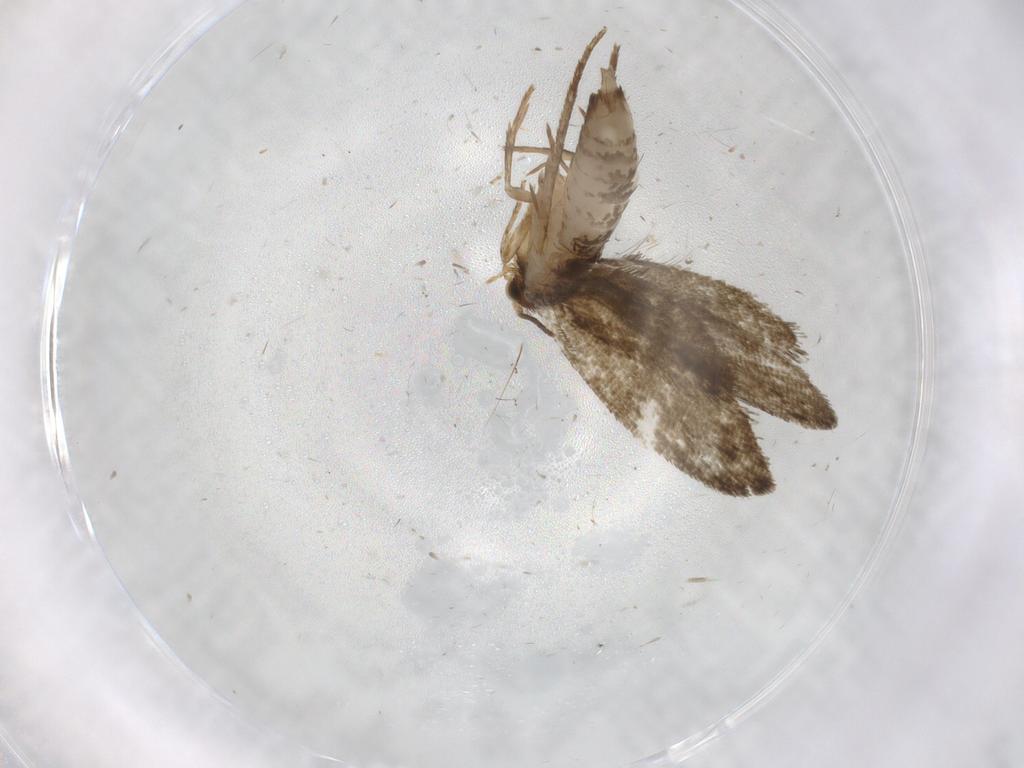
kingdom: Animalia
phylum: Arthropoda
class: Insecta
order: Lepidoptera
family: Tineidae
